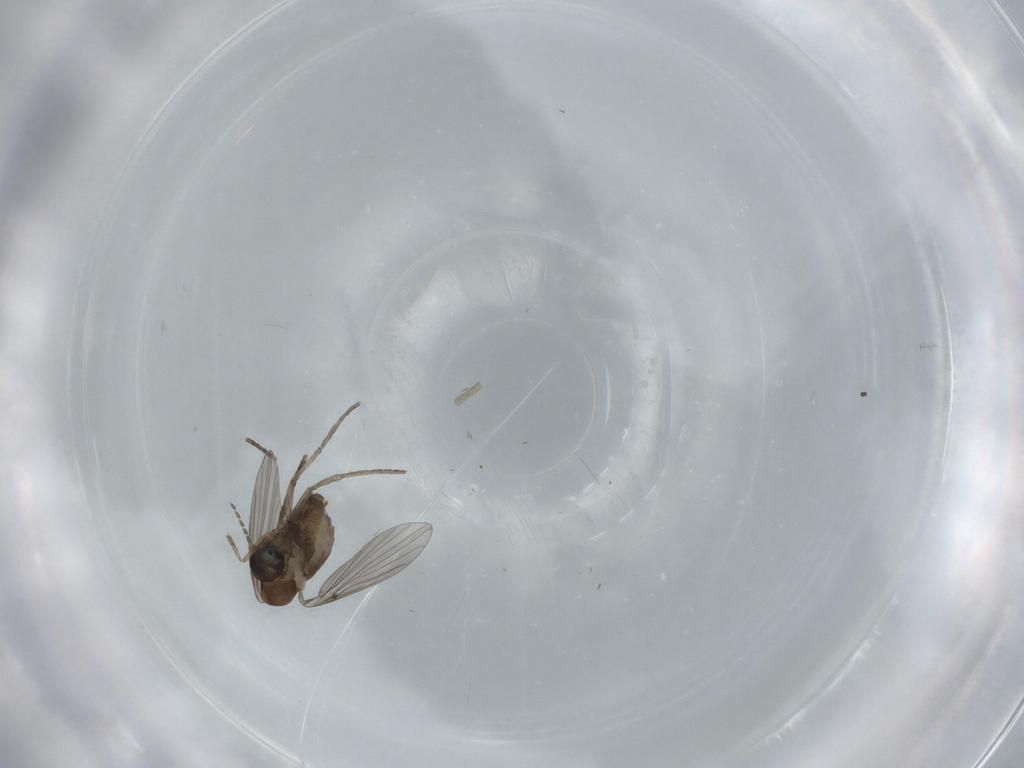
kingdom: Animalia
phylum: Arthropoda
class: Insecta
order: Diptera
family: Psychodidae
